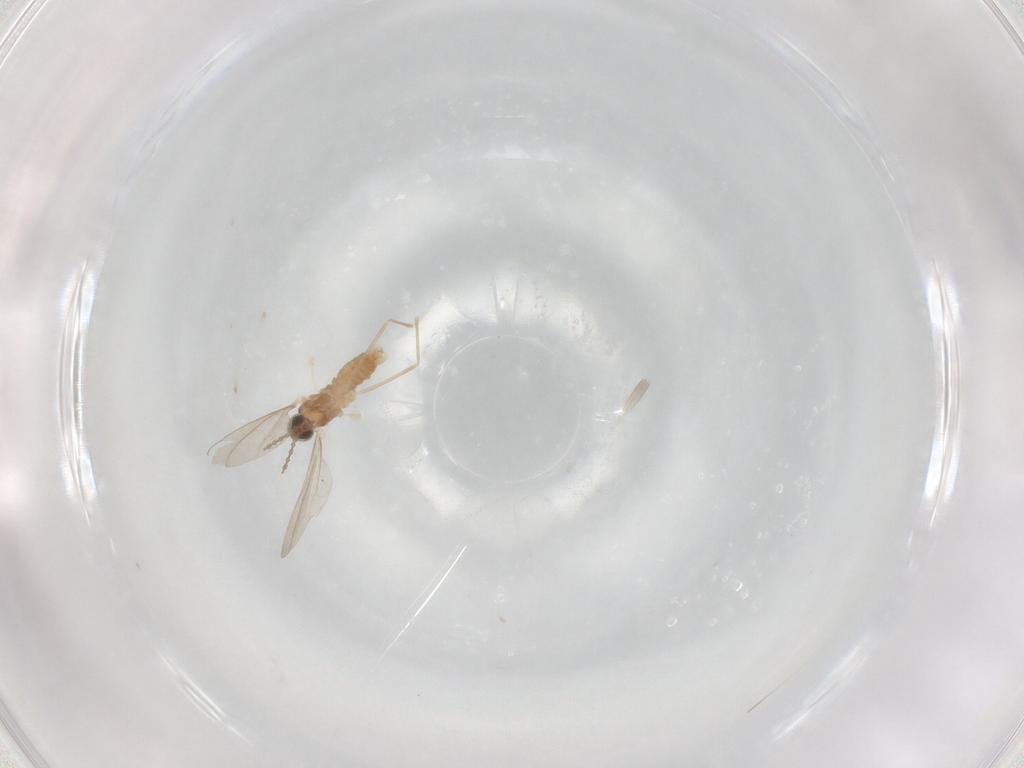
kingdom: Animalia
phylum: Arthropoda
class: Insecta
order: Diptera
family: Cecidomyiidae
